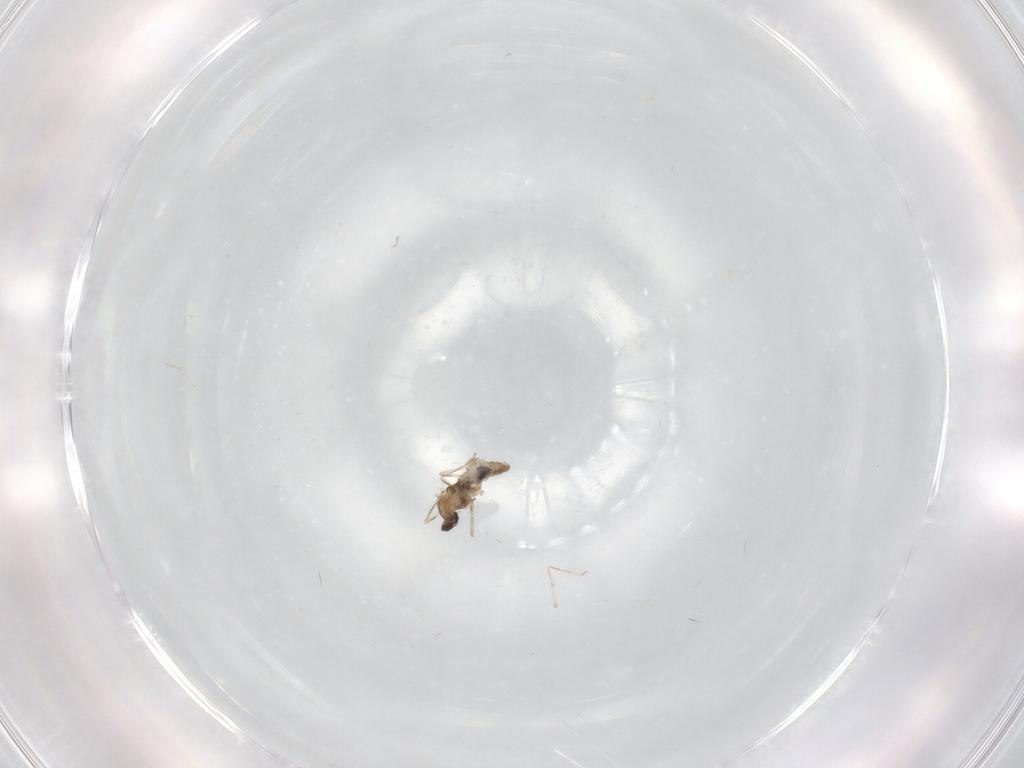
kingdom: Animalia
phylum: Arthropoda
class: Insecta
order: Diptera
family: Cecidomyiidae
